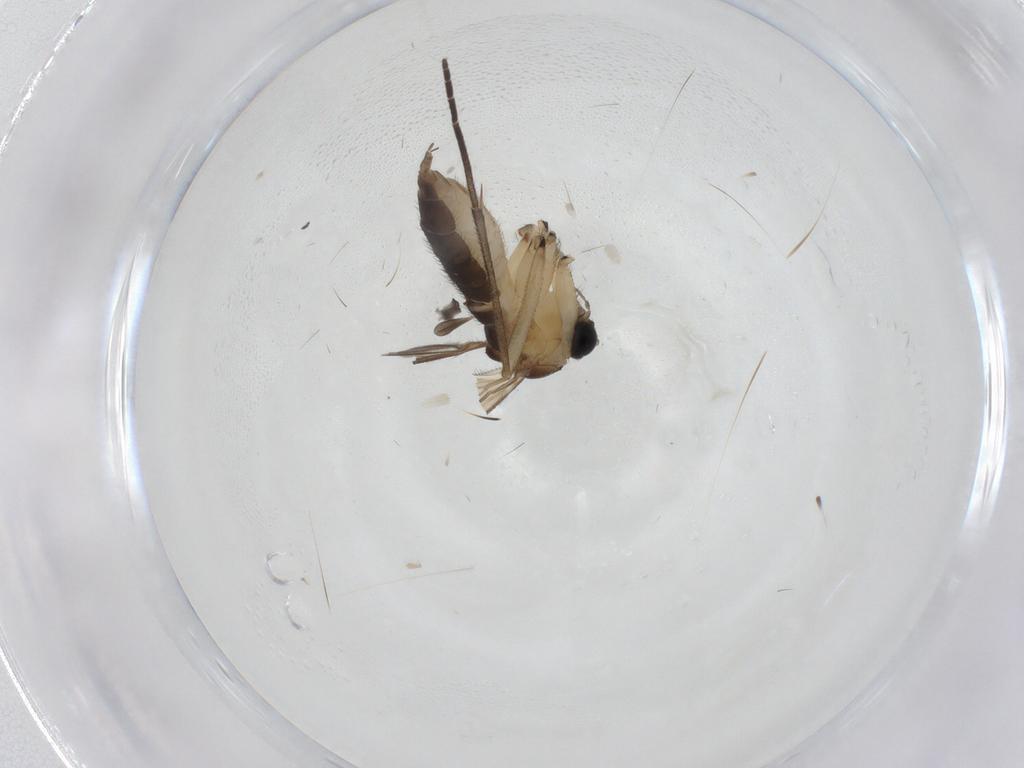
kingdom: Animalia
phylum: Arthropoda
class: Insecta
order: Diptera
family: Sciaridae
